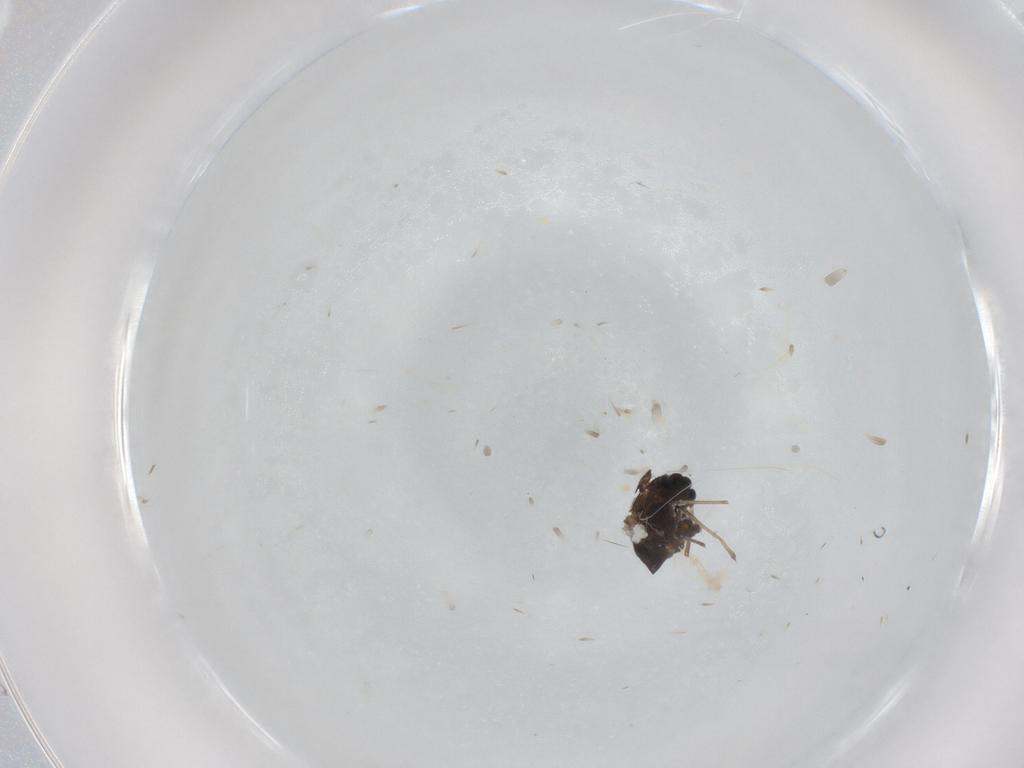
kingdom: Animalia
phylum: Arthropoda
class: Insecta
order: Diptera
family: Chironomidae
